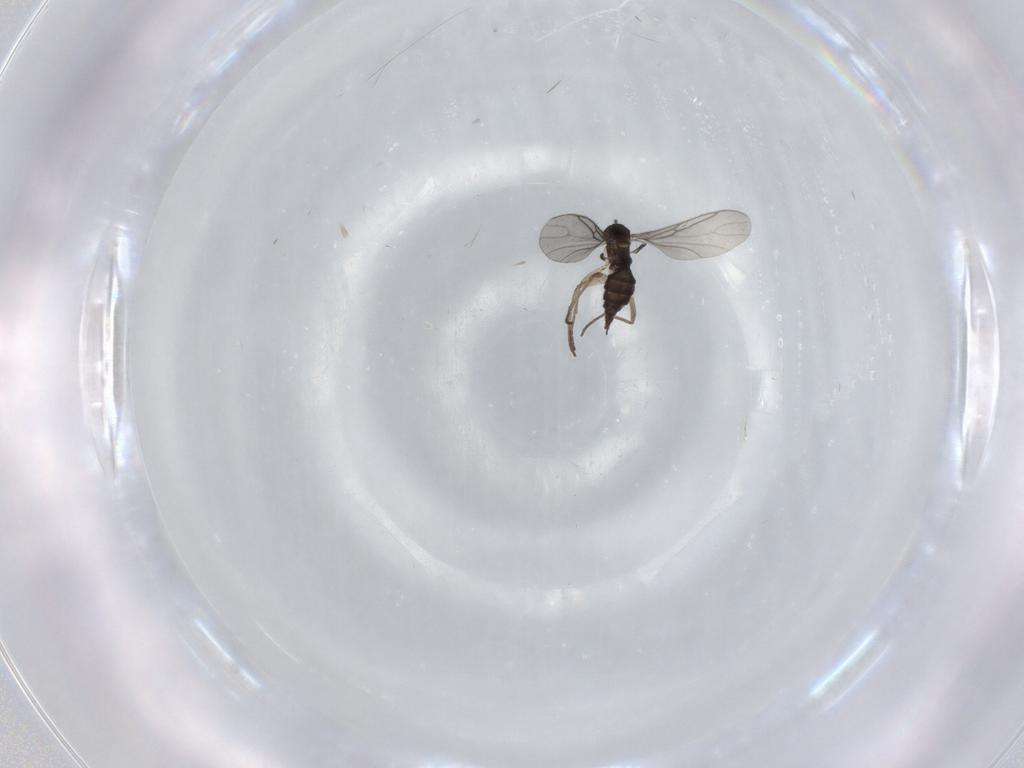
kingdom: Animalia
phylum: Arthropoda
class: Insecta
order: Diptera
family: Sciaridae
